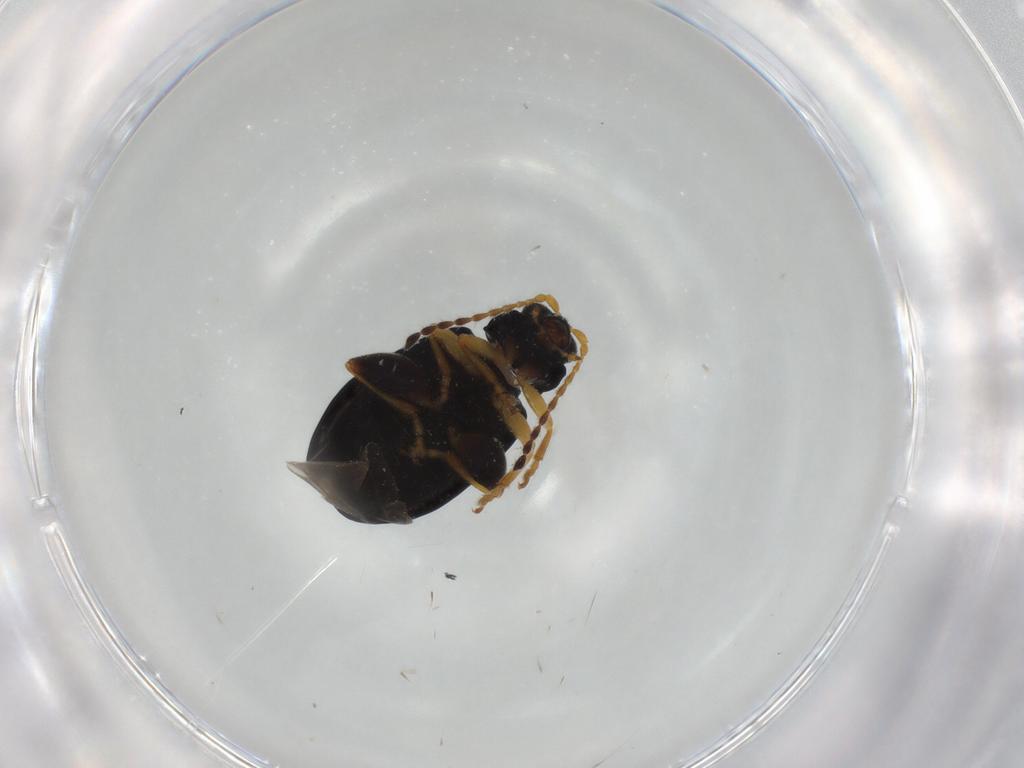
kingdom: Animalia
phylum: Arthropoda
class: Insecta
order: Coleoptera
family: Chrysomelidae
